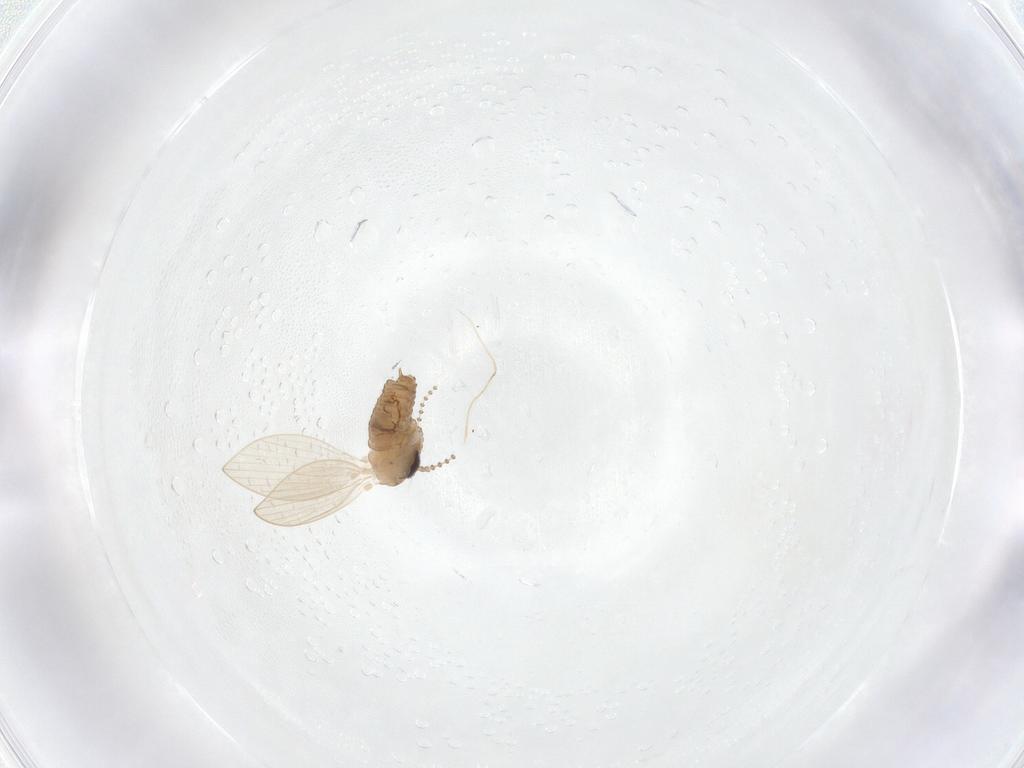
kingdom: Animalia
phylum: Arthropoda
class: Insecta
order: Diptera
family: Psychodidae
